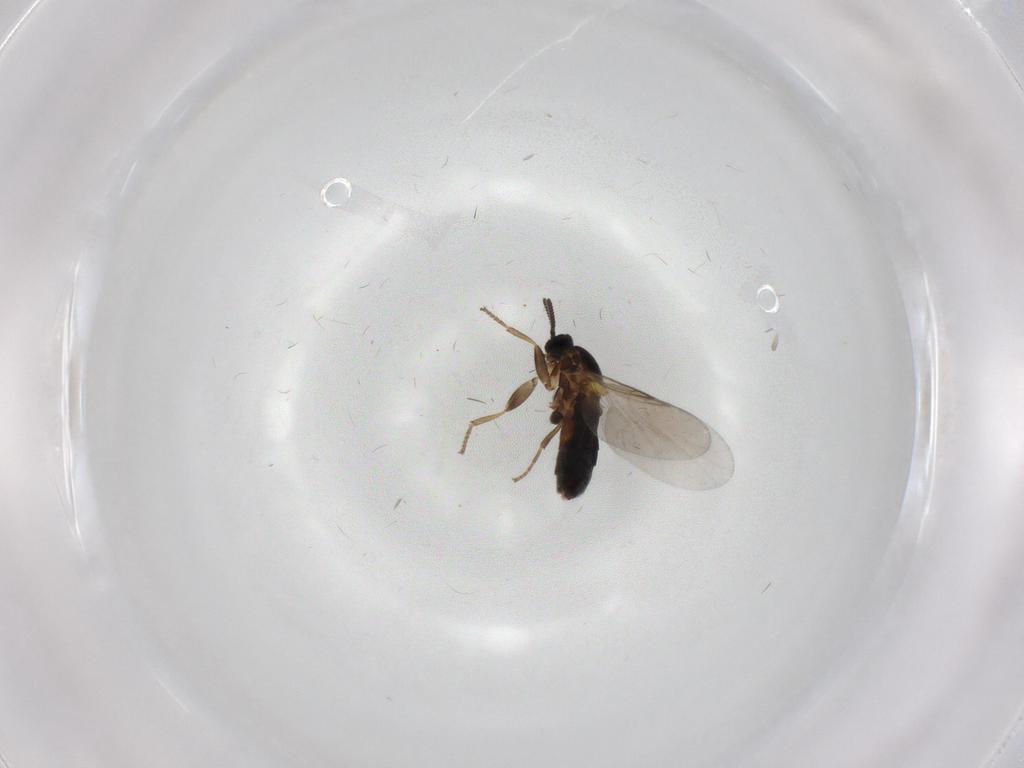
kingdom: Animalia
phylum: Arthropoda
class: Insecta
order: Diptera
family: Scatopsidae
